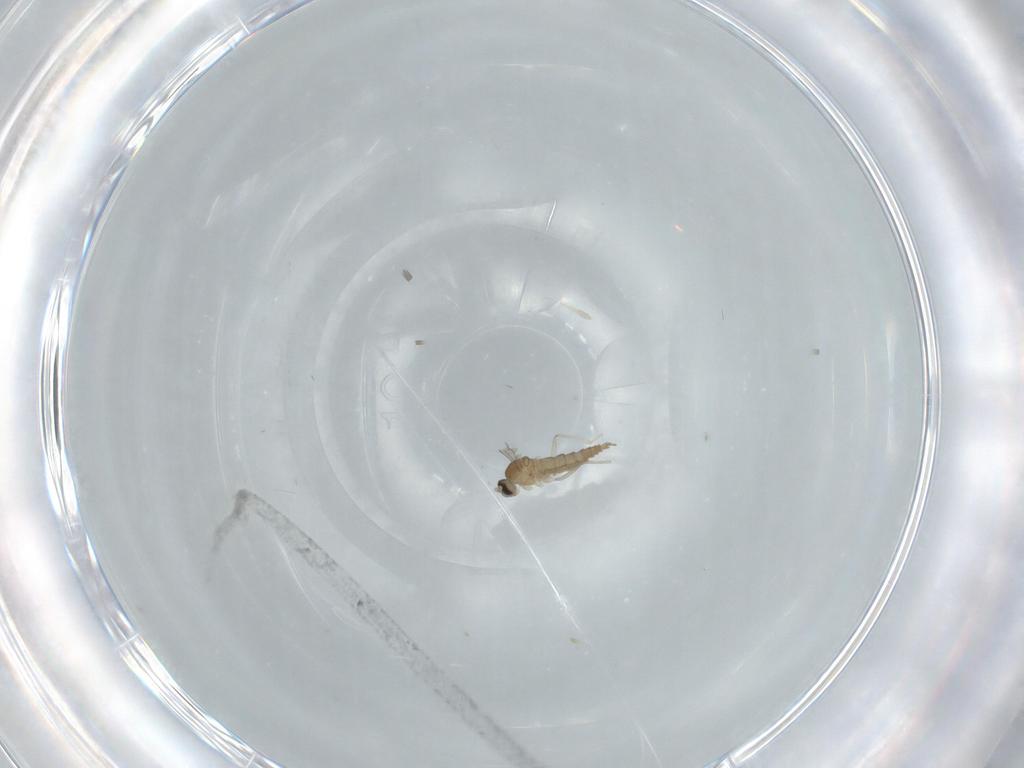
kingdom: Animalia
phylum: Arthropoda
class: Insecta
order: Diptera
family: Cecidomyiidae
